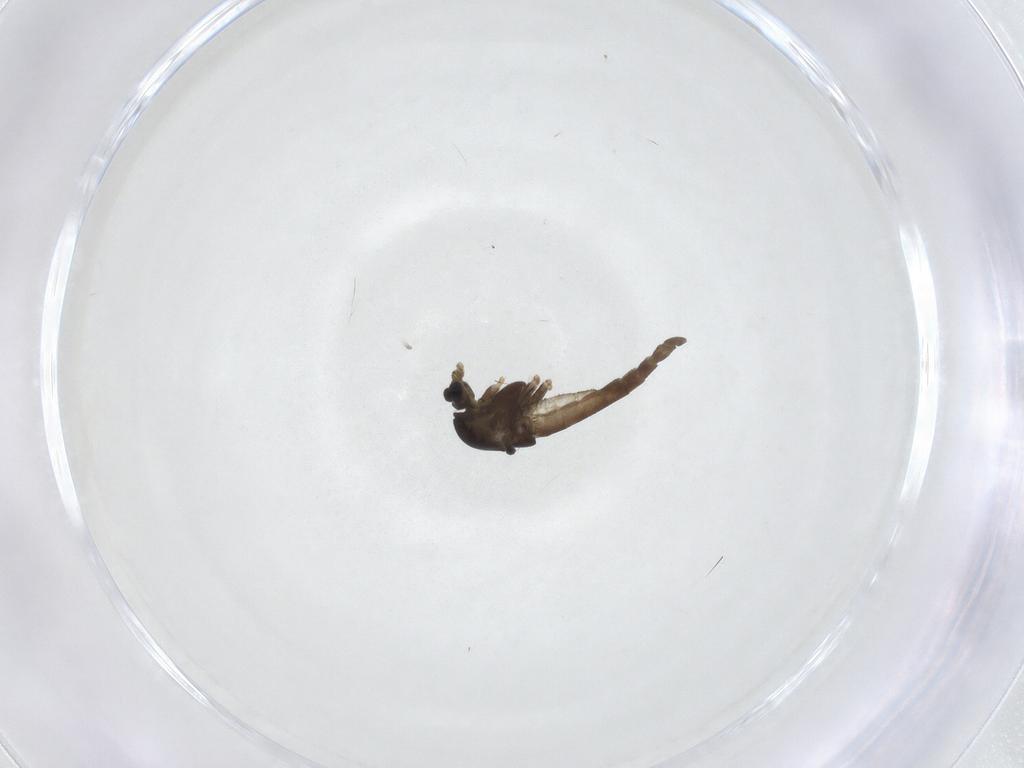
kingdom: Animalia
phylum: Arthropoda
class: Insecta
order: Diptera
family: Chironomidae
